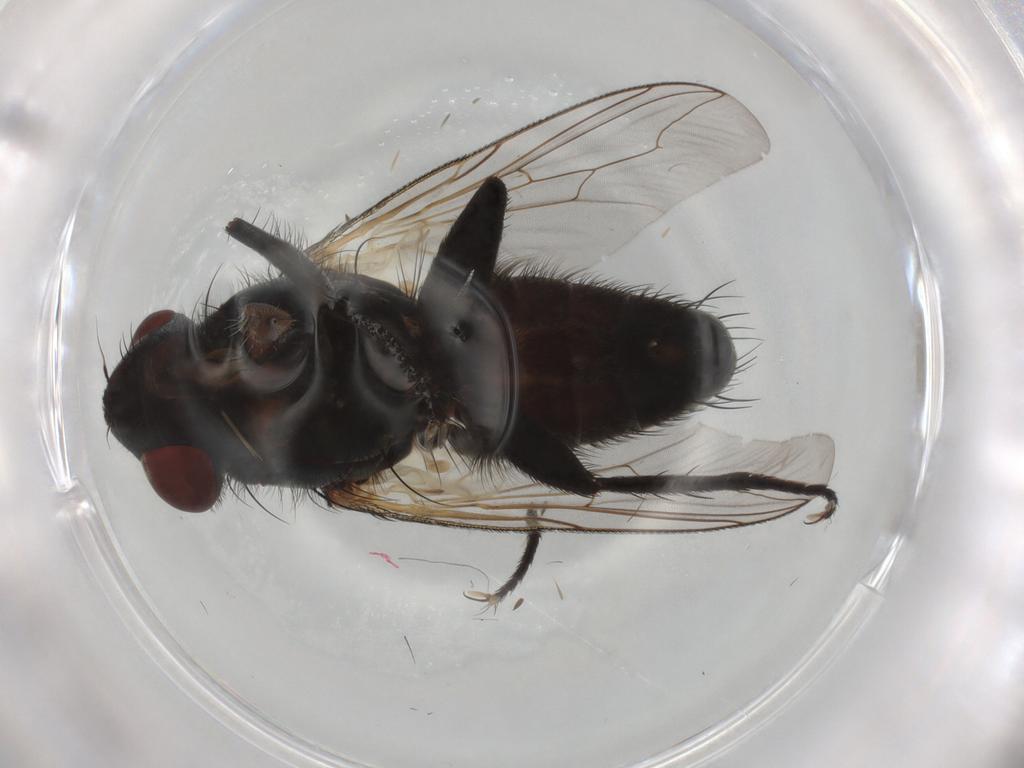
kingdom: Animalia
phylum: Arthropoda
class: Insecta
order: Diptera
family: Sarcophagidae
